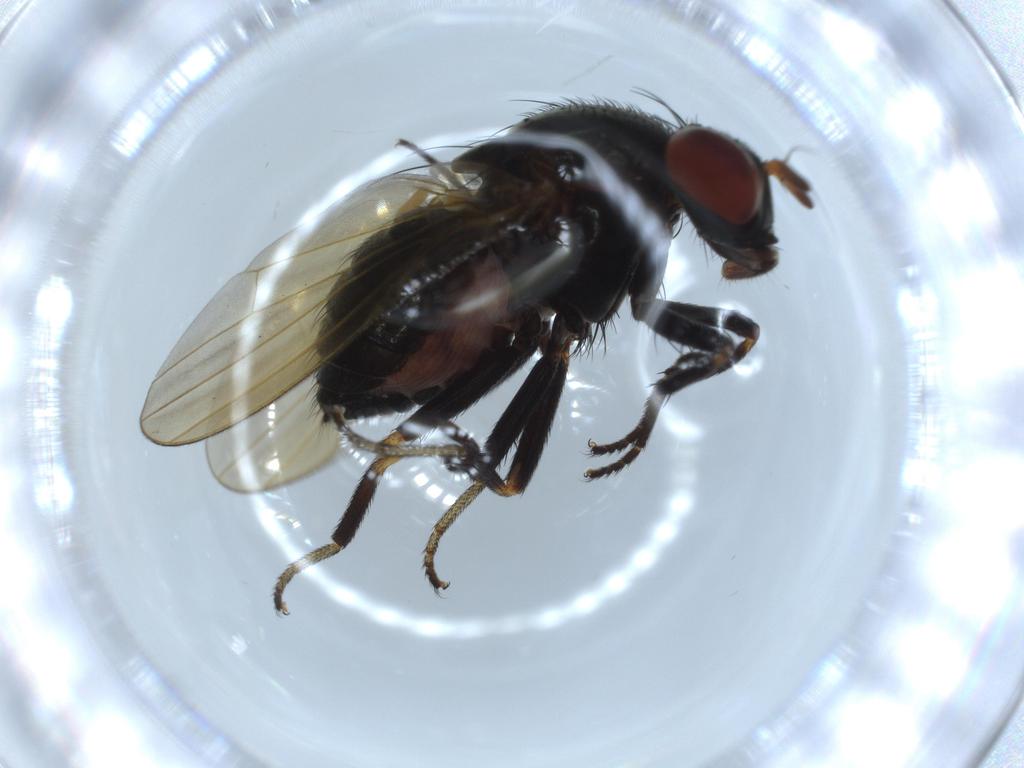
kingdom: Animalia
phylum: Arthropoda
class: Insecta
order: Diptera
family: Lauxaniidae
